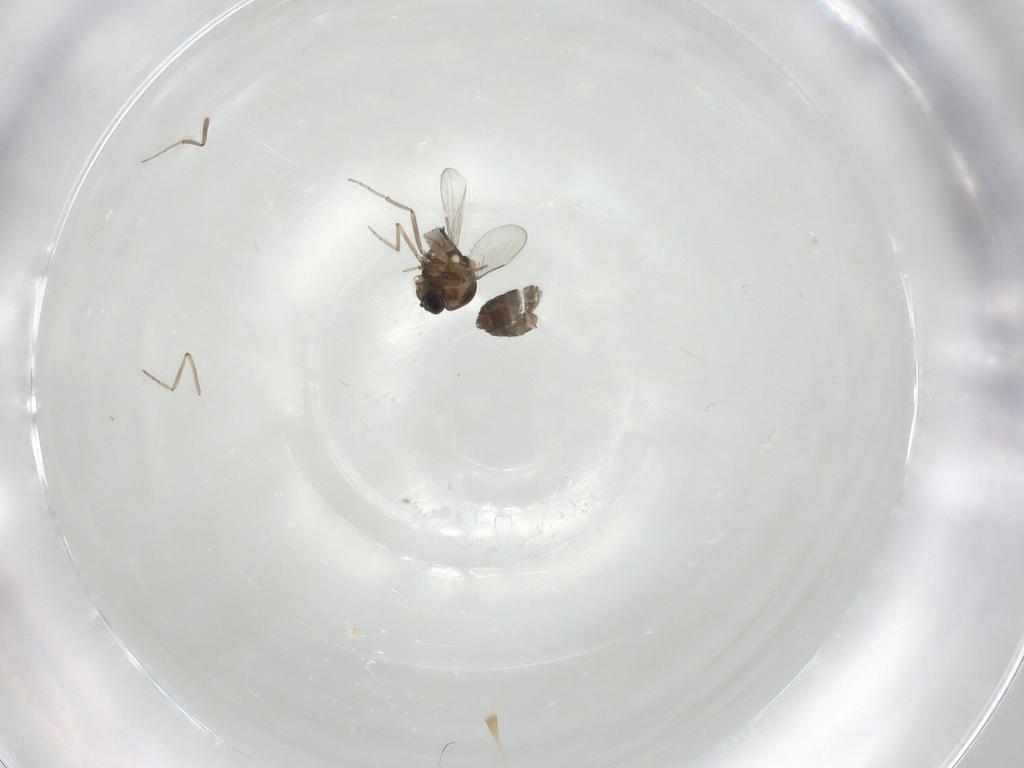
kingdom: Animalia
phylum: Arthropoda
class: Insecta
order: Diptera
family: Ceratopogonidae
